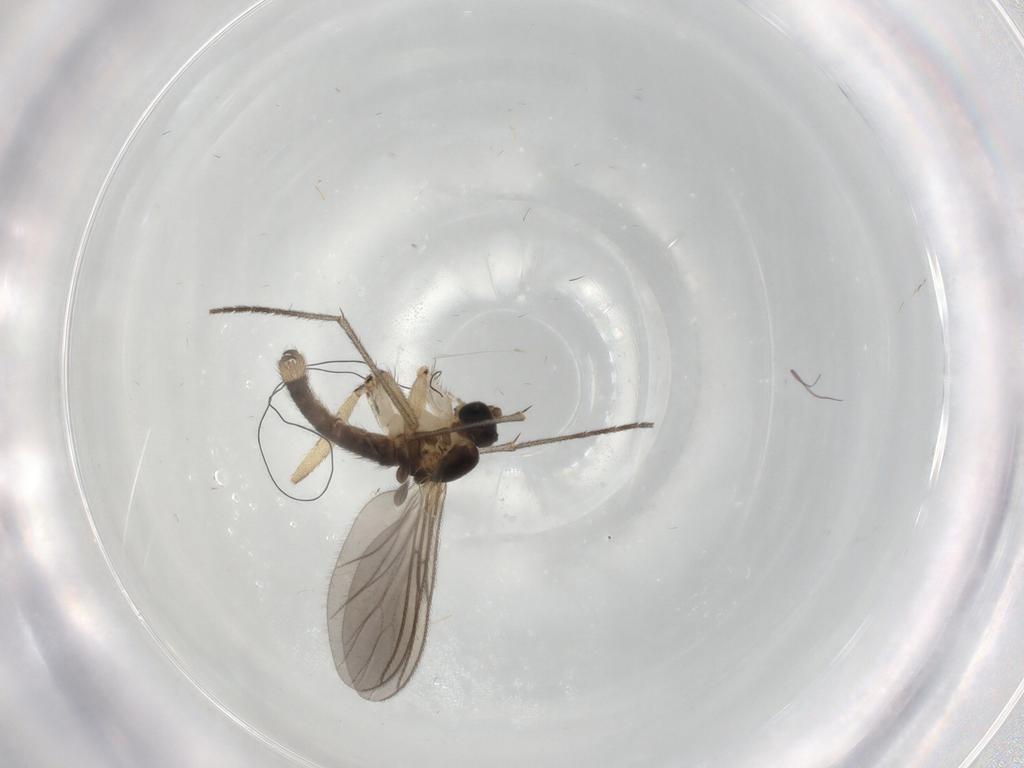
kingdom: Animalia
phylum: Arthropoda
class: Insecta
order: Diptera
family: Sciaridae
